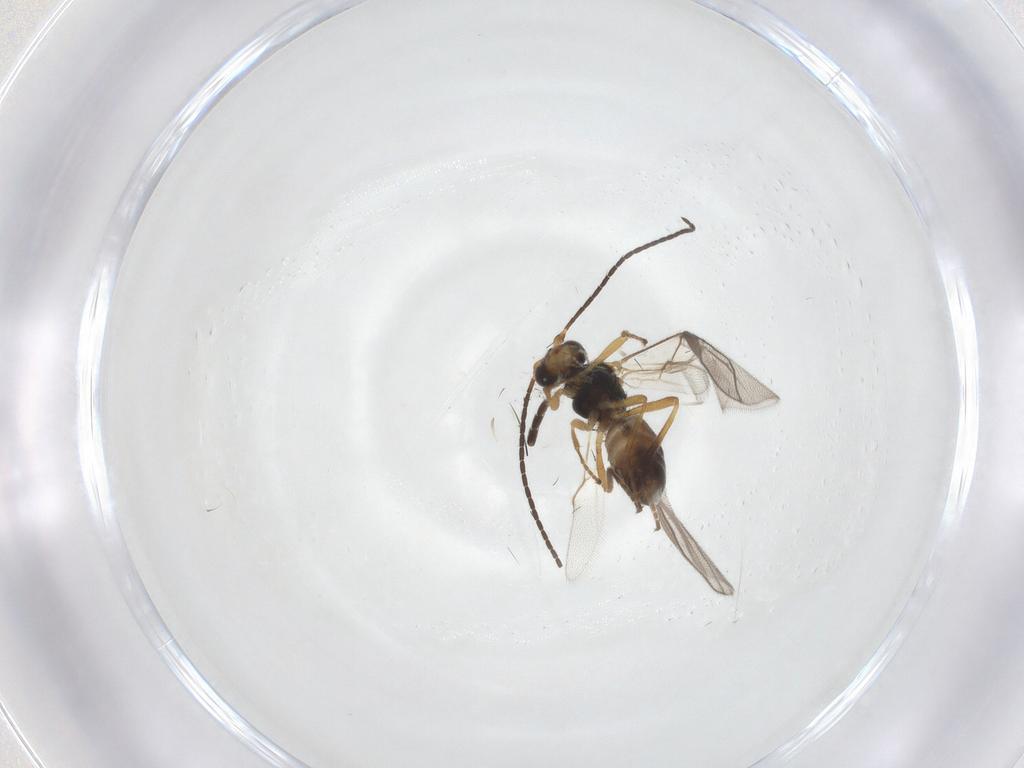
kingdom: Animalia
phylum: Arthropoda
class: Insecta
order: Hymenoptera
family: Braconidae
